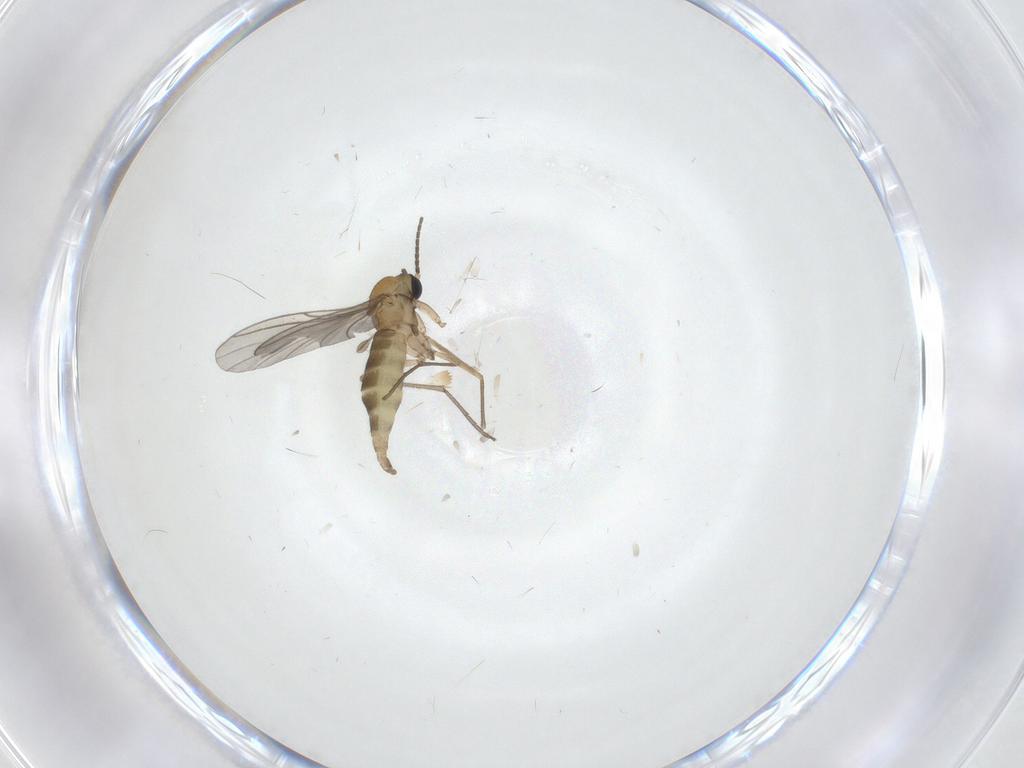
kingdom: Animalia
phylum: Arthropoda
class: Insecta
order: Diptera
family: Sciaridae
